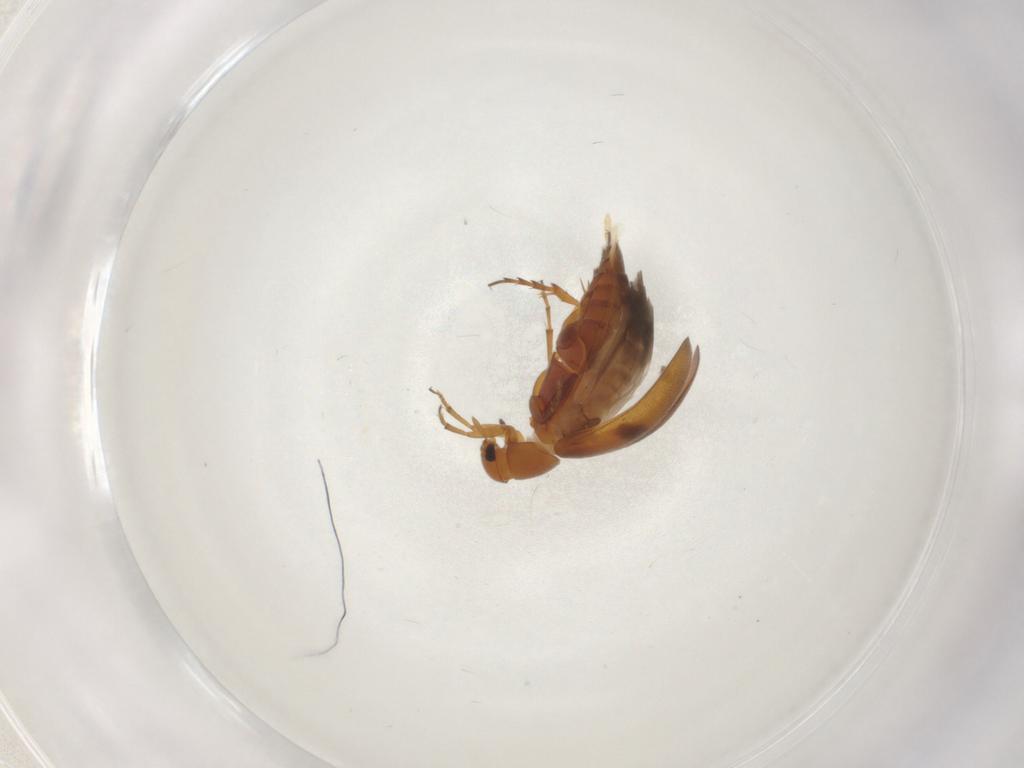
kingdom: Animalia
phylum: Arthropoda
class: Insecta
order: Coleoptera
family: Scraptiidae
